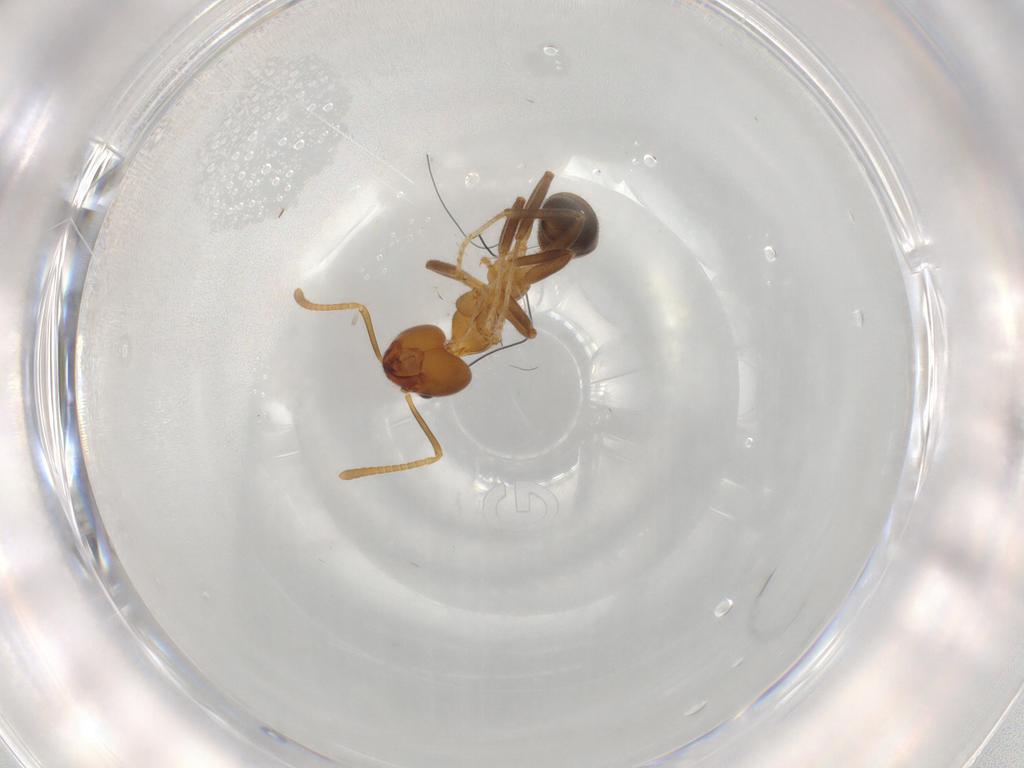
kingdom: Animalia
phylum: Arthropoda
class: Insecta
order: Hymenoptera
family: Formicidae
